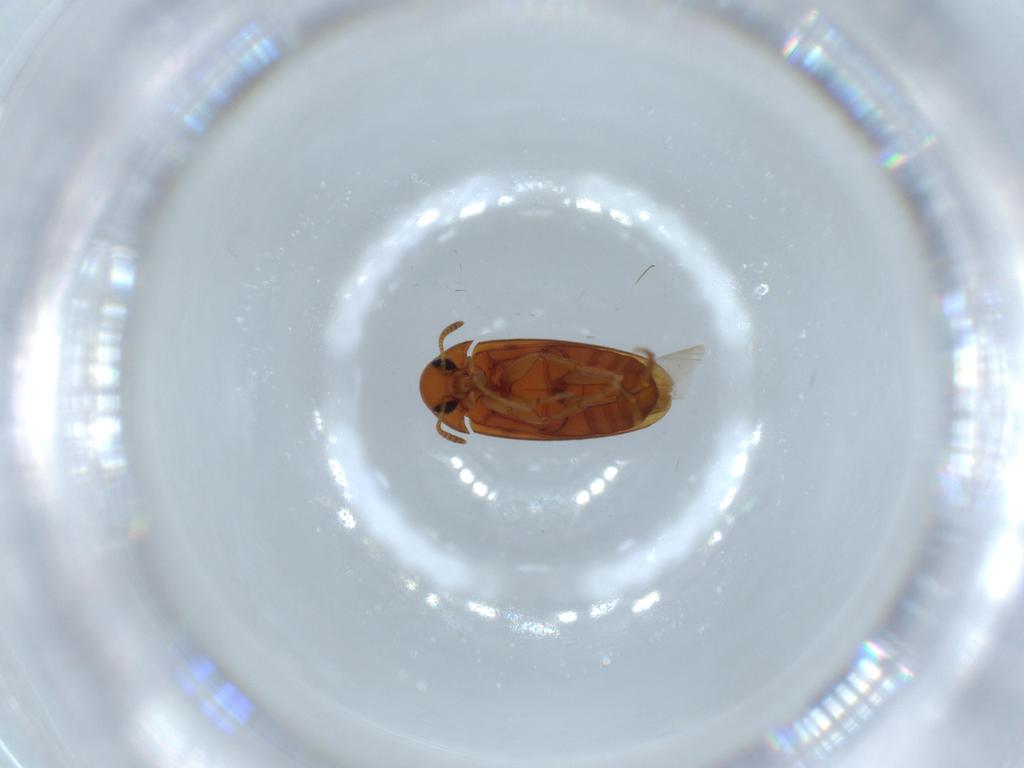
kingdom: Animalia
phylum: Arthropoda
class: Insecta
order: Coleoptera
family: Scraptiidae
